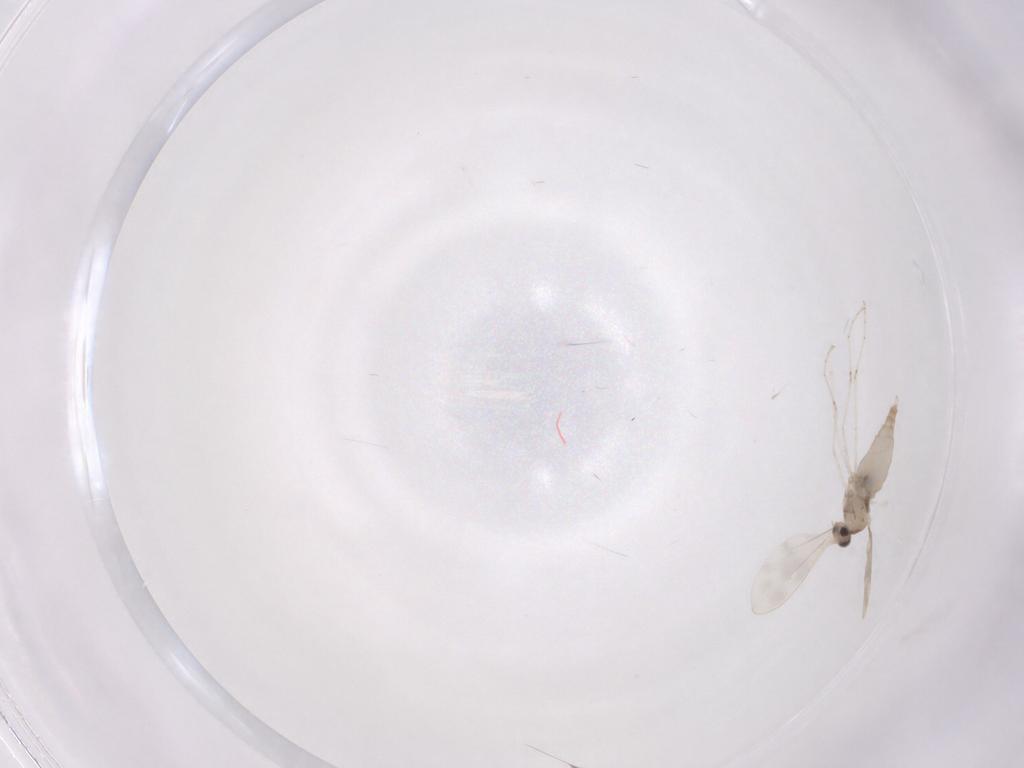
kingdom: Animalia
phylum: Arthropoda
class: Insecta
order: Diptera
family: Cecidomyiidae
